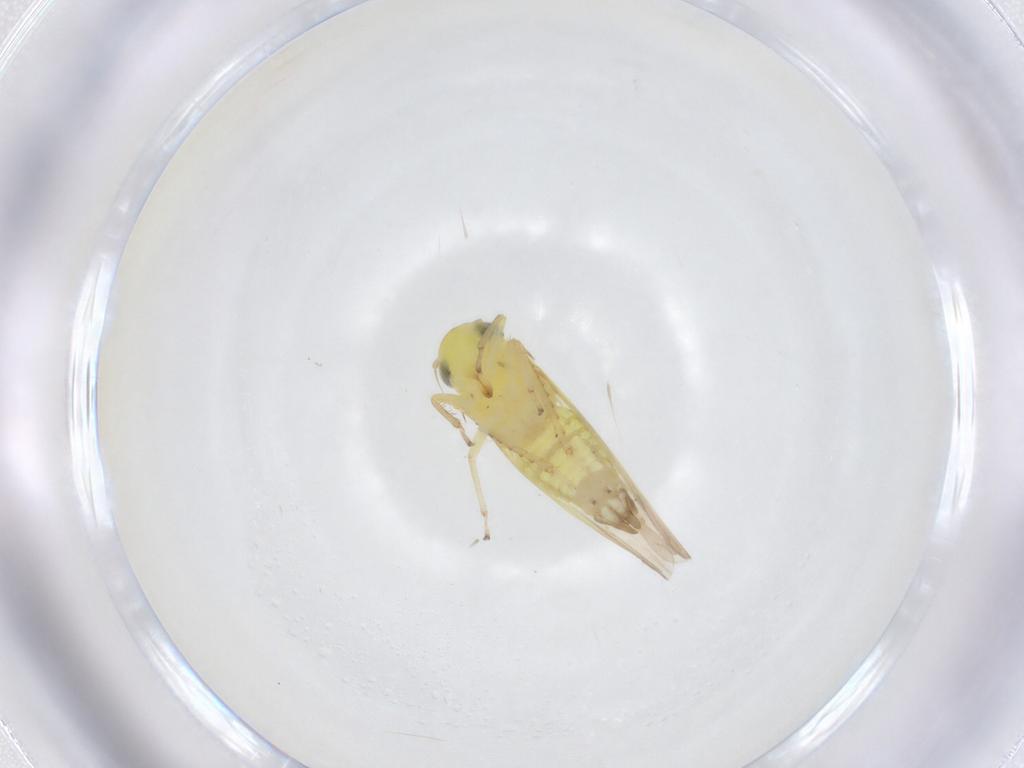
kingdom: Animalia
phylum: Arthropoda
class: Insecta
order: Hemiptera
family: Cicadellidae
